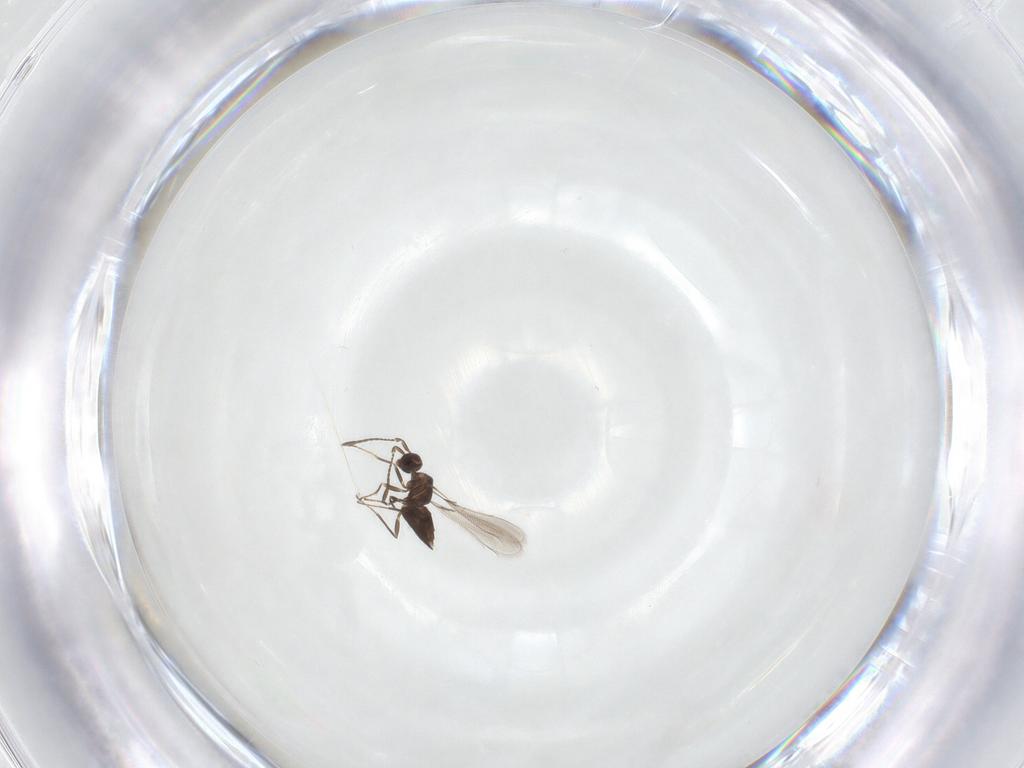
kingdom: Animalia
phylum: Arthropoda
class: Insecta
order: Hymenoptera
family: Mymaridae
